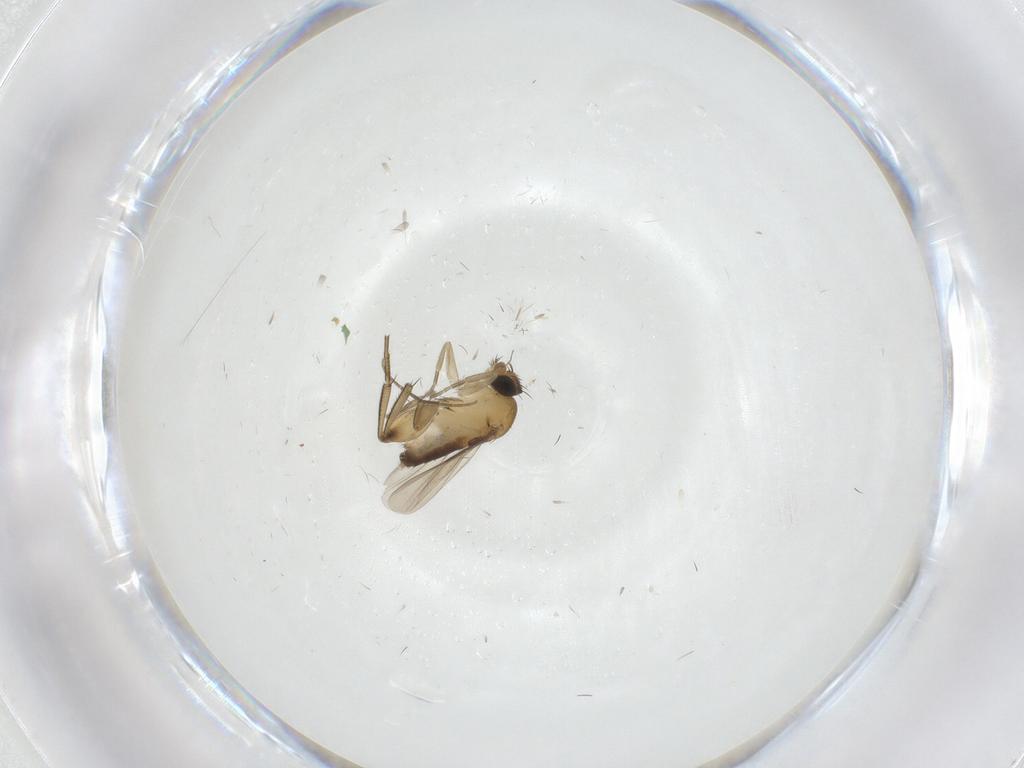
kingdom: Animalia
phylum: Arthropoda
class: Insecta
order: Diptera
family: Phoridae
